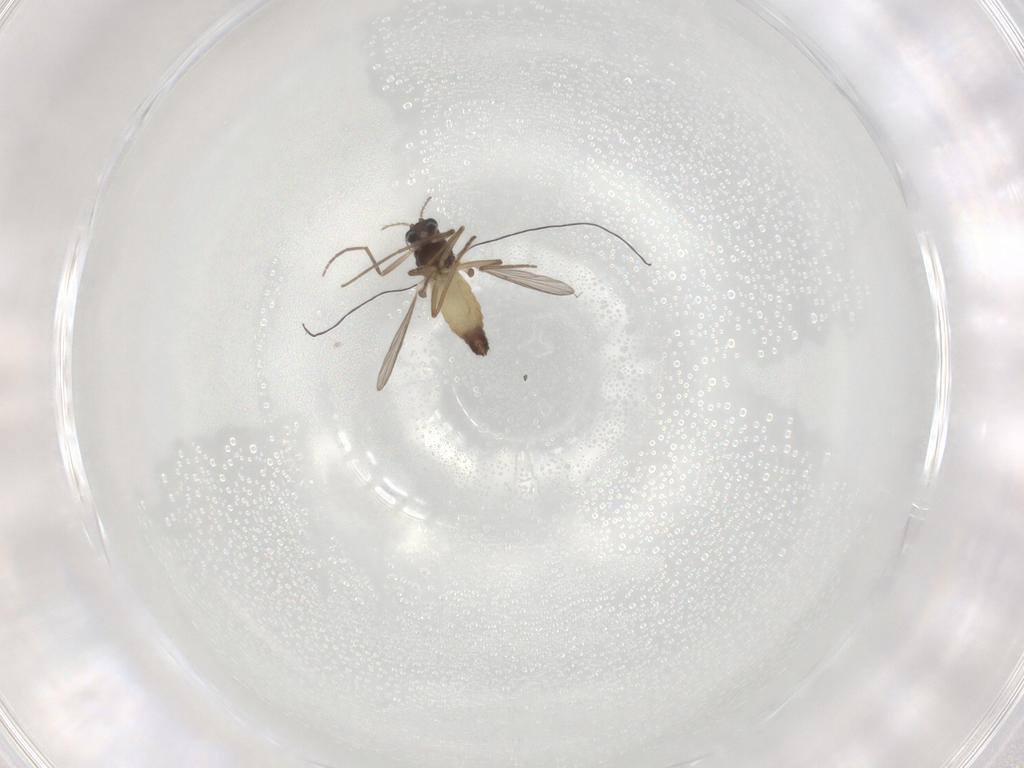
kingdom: Animalia
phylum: Arthropoda
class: Insecta
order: Diptera
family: Chironomidae
